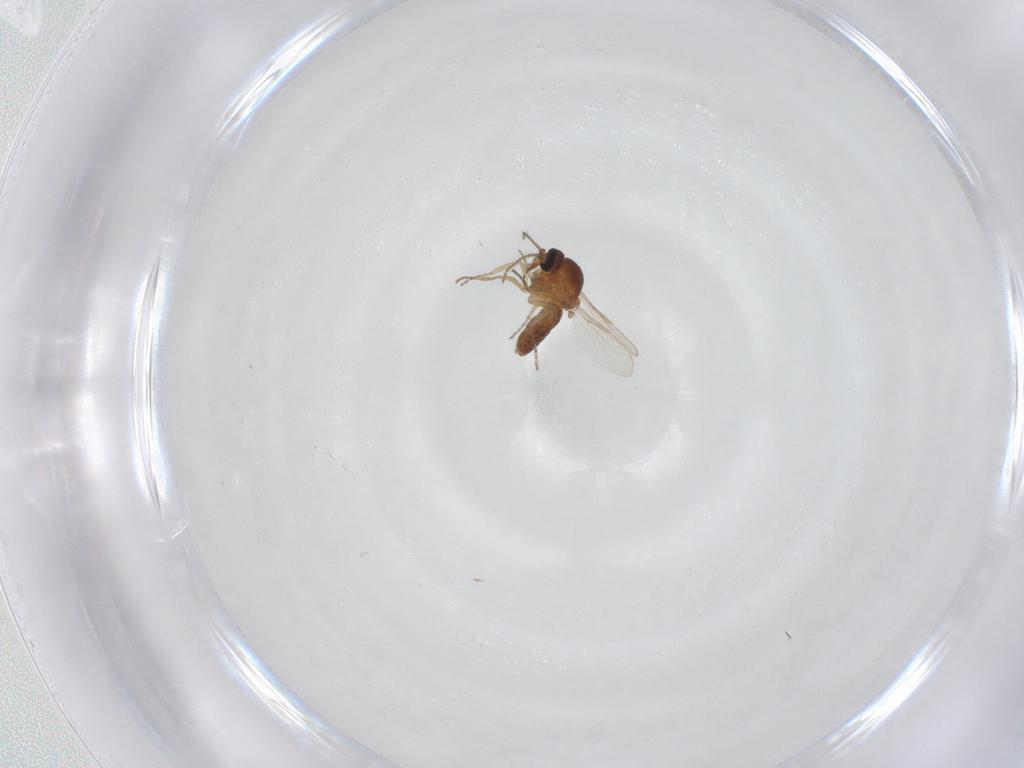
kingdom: Animalia
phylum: Arthropoda
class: Insecta
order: Diptera
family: Ceratopogonidae
